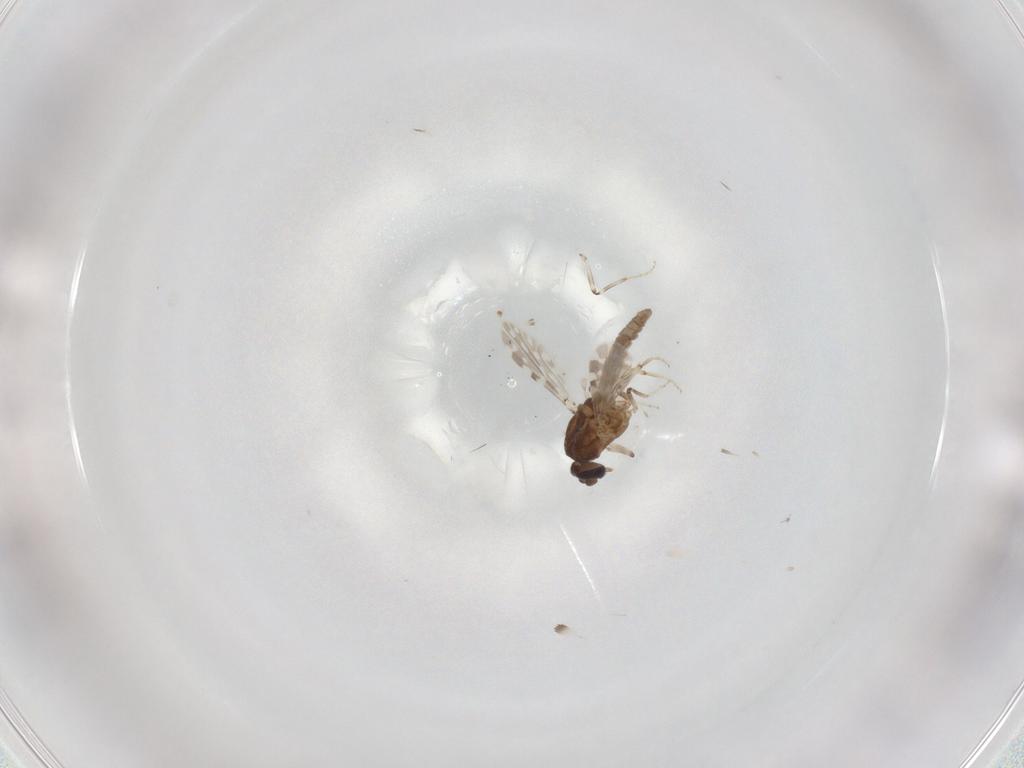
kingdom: Animalia
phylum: Arthropoda
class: Insecta
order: Diptera
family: Ceratopogonidae
